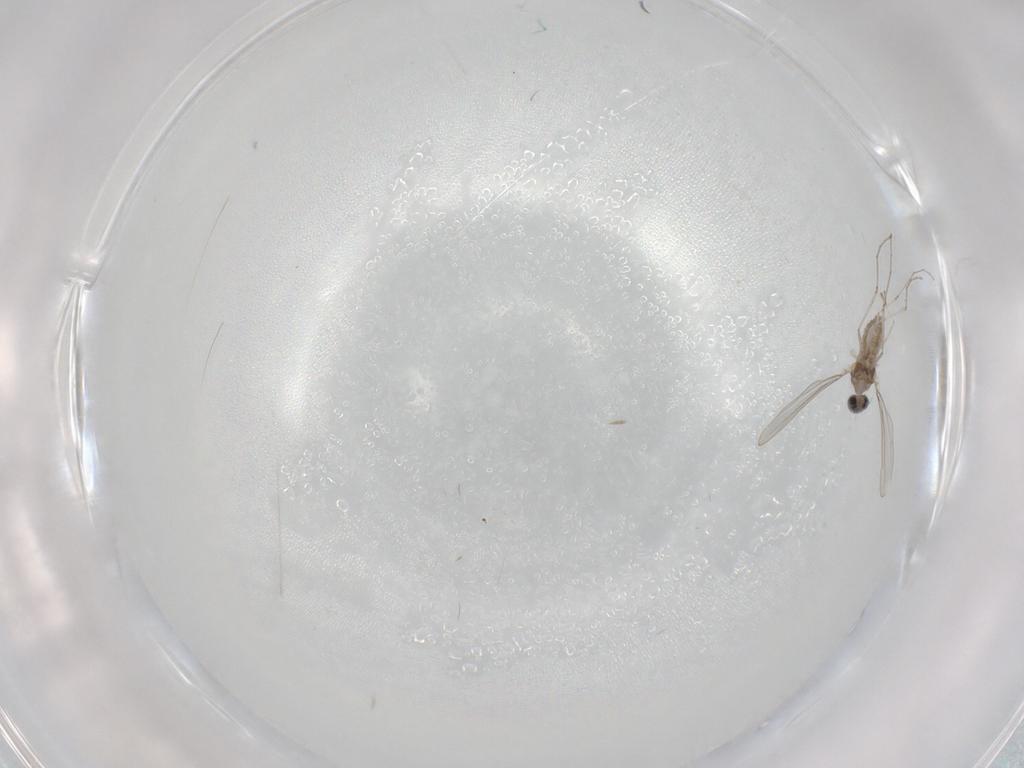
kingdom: Animalia
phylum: Arthropoda
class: Insecta
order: Diptera
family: Cecidomyiidae
